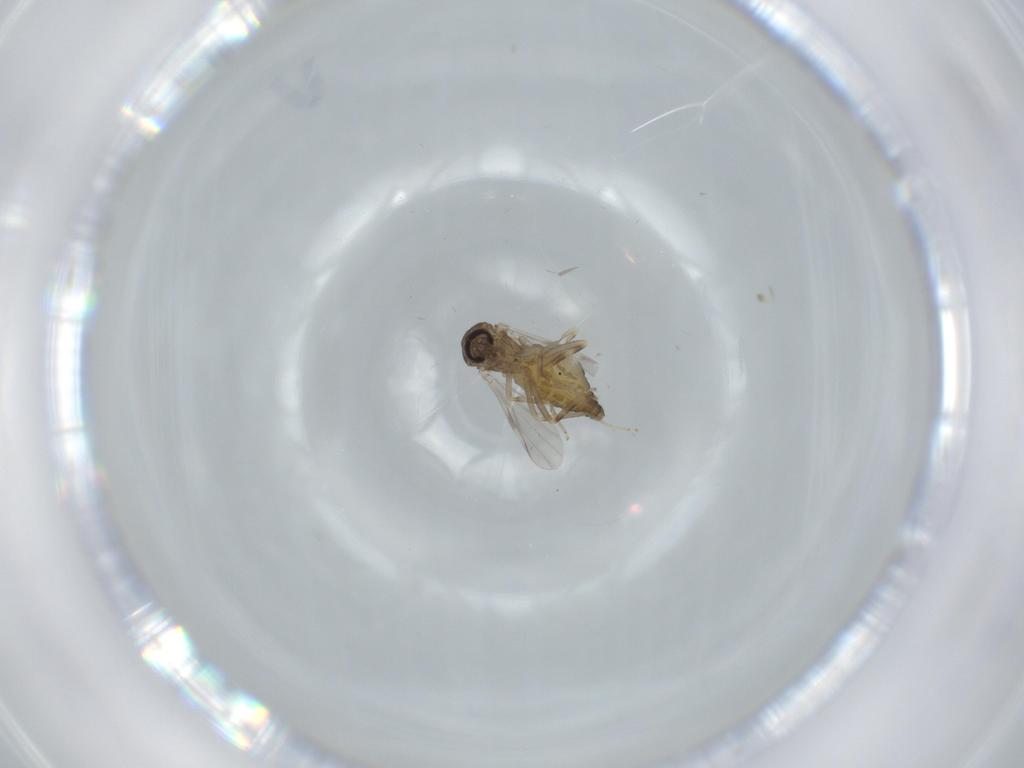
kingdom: Animalia
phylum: Arthropoda
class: Insecta
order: Diptera
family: Ceratopogonidae
